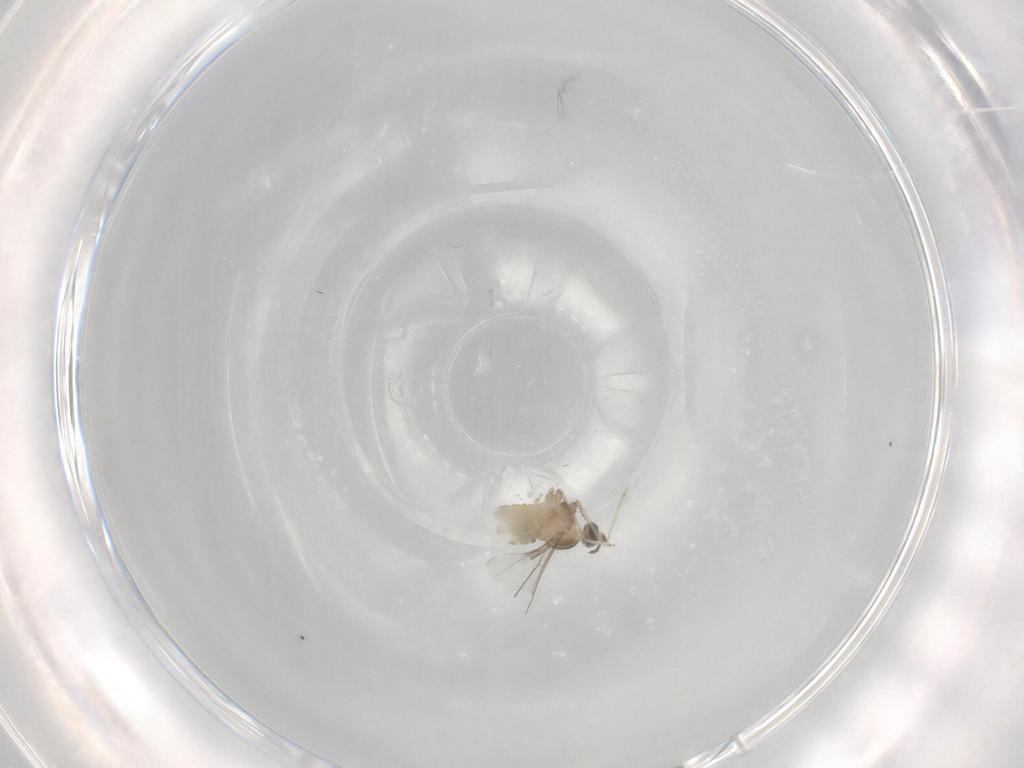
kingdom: Animalia
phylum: Arthropoda
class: Insecta
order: Diptera
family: Cecidomyiidae
